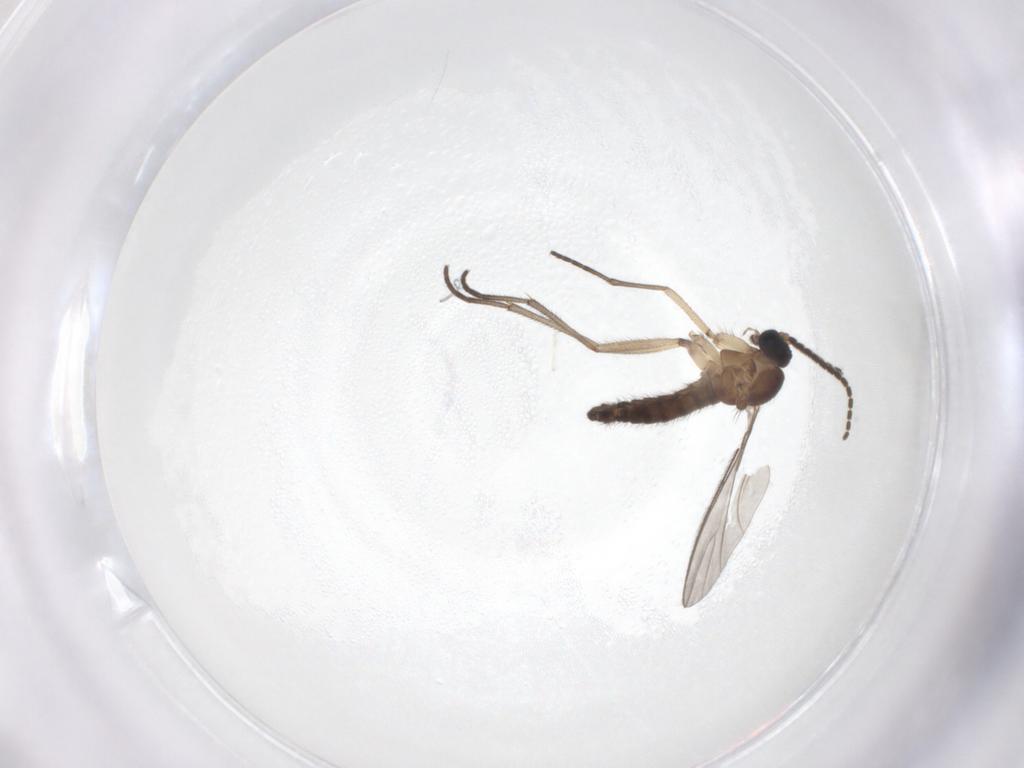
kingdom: Animalia
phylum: Arthropoda
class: Insecta
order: Diptera
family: Sciaridae
